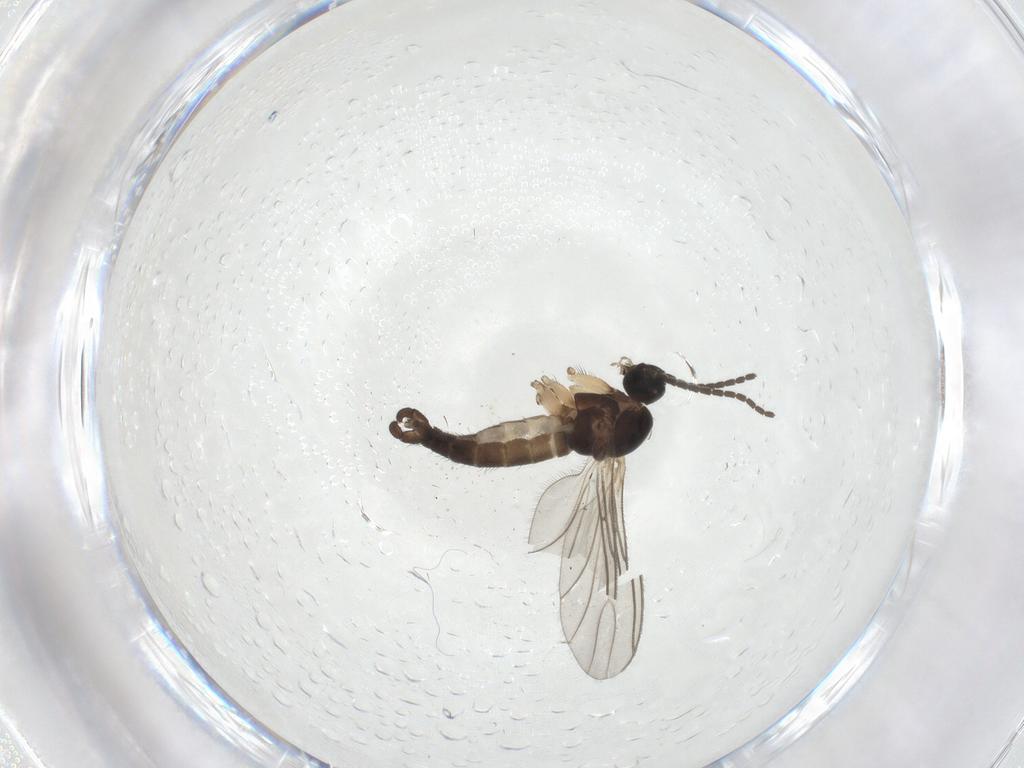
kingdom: Animalia
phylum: Arthropoda
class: Insecta
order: Diptera
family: Sciaridae
